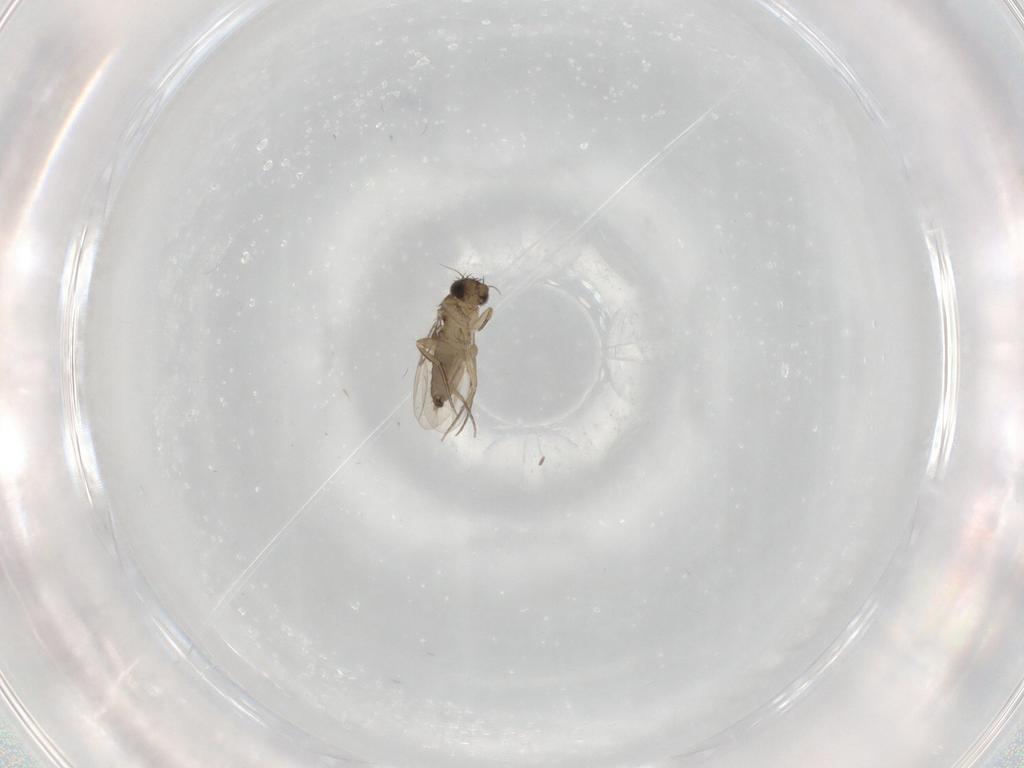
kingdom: Animalia
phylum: Arthropoda
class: Insecta
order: Diptera
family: Phoridae
